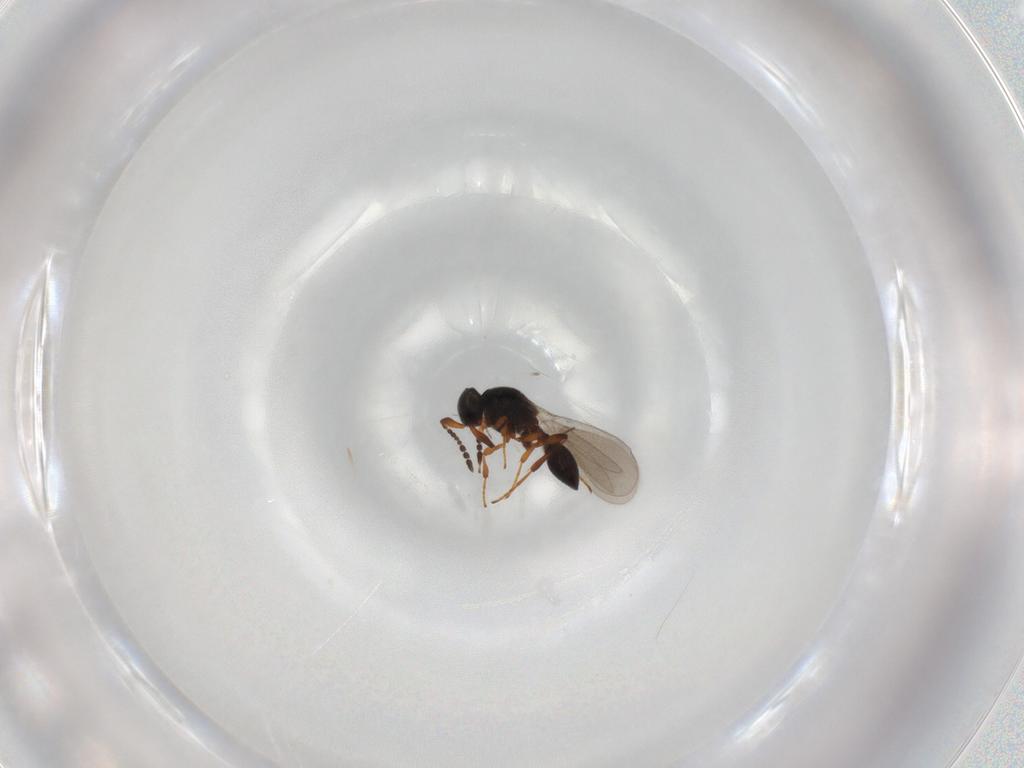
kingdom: Animalia
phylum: Arthropoda
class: Insecta
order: Hymenoptera
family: Platygastridae
